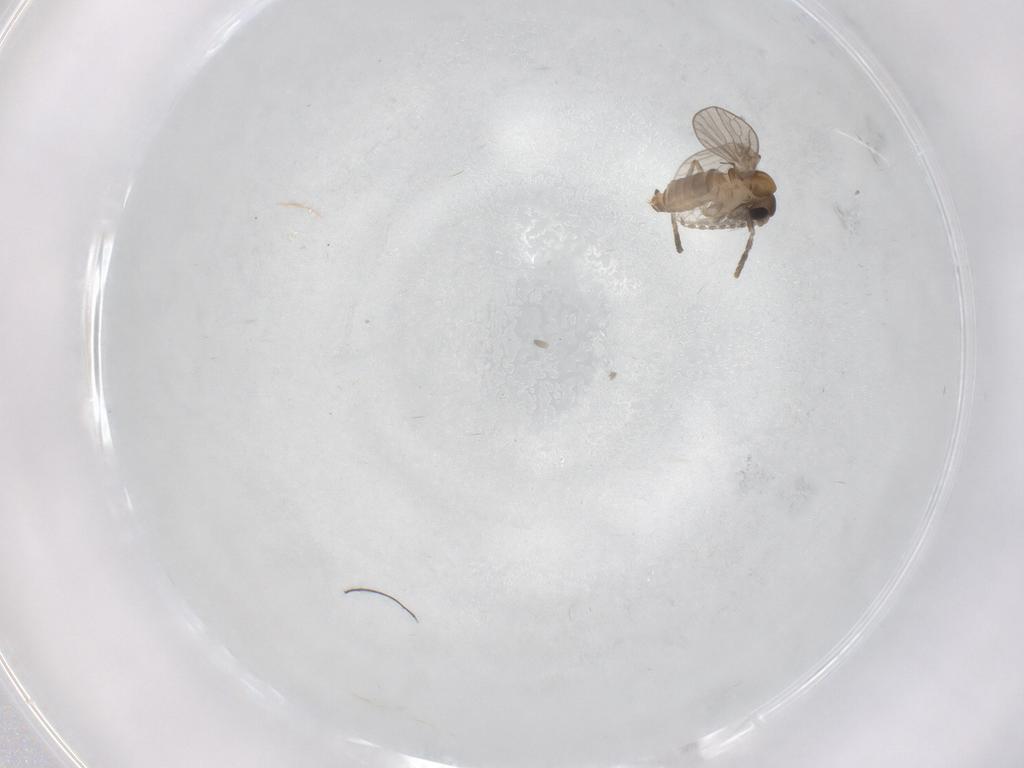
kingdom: Animalia
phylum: Arthropoda
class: Insecta
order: Diptera
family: Psychodidae
